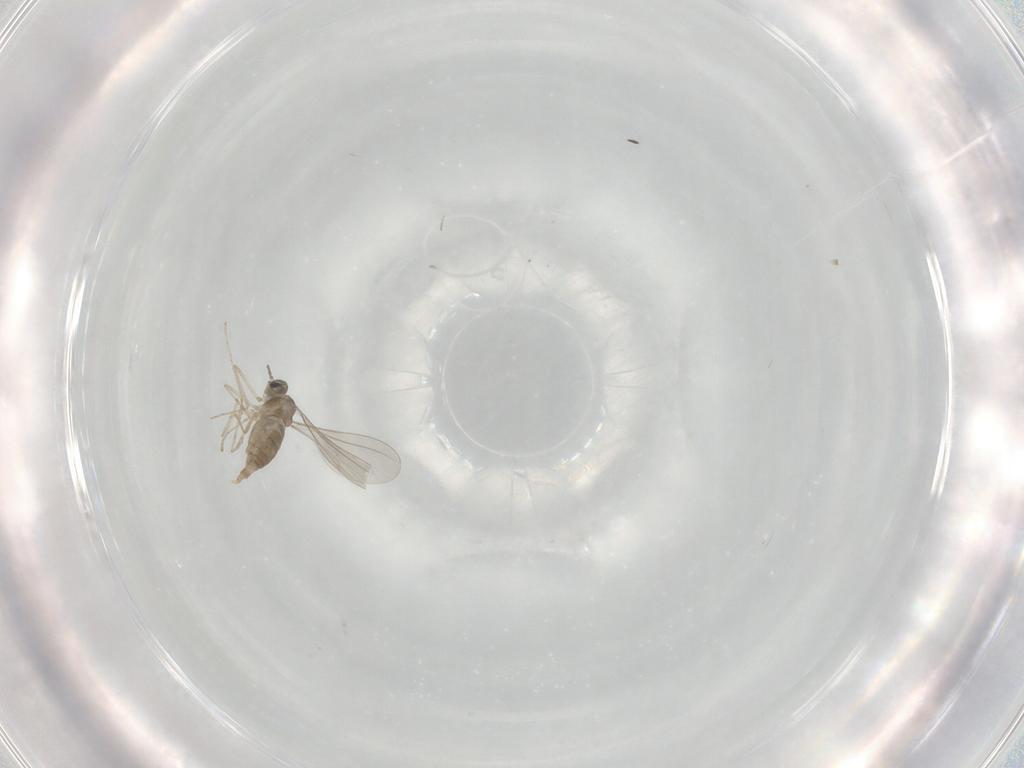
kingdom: Animalia
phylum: Arthropoda
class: Insecta
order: Diptera
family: Sciaridae
